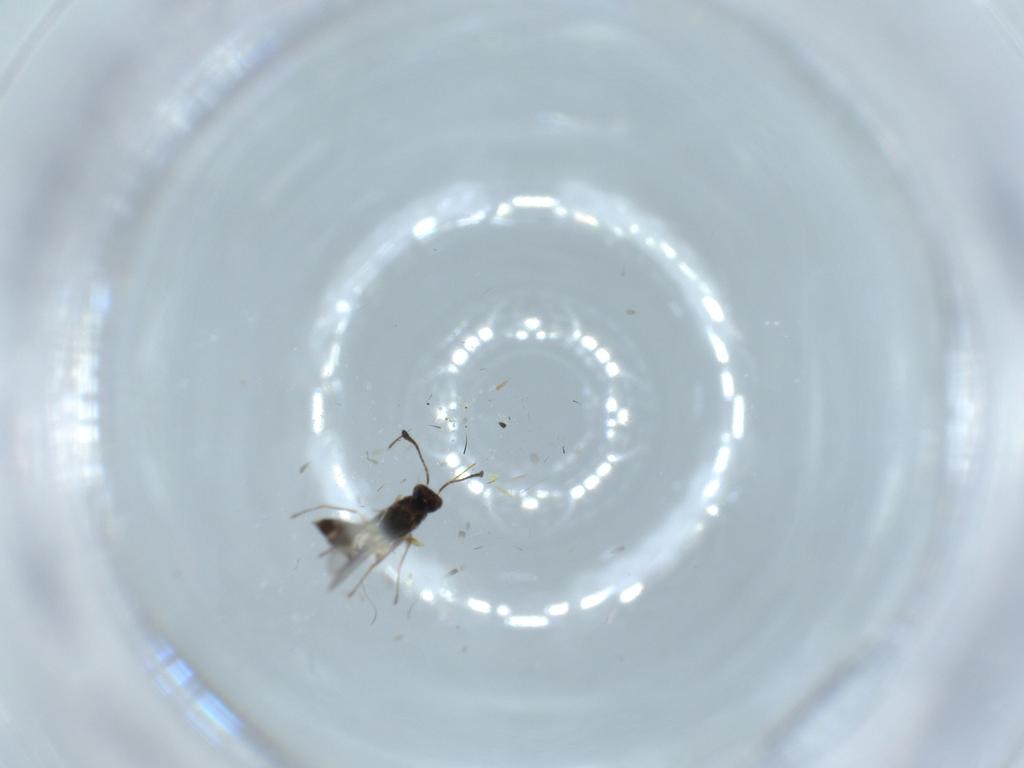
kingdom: Animalia
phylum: Arthropoda
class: Insecta
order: Hymenoptera
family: Mymaridae
